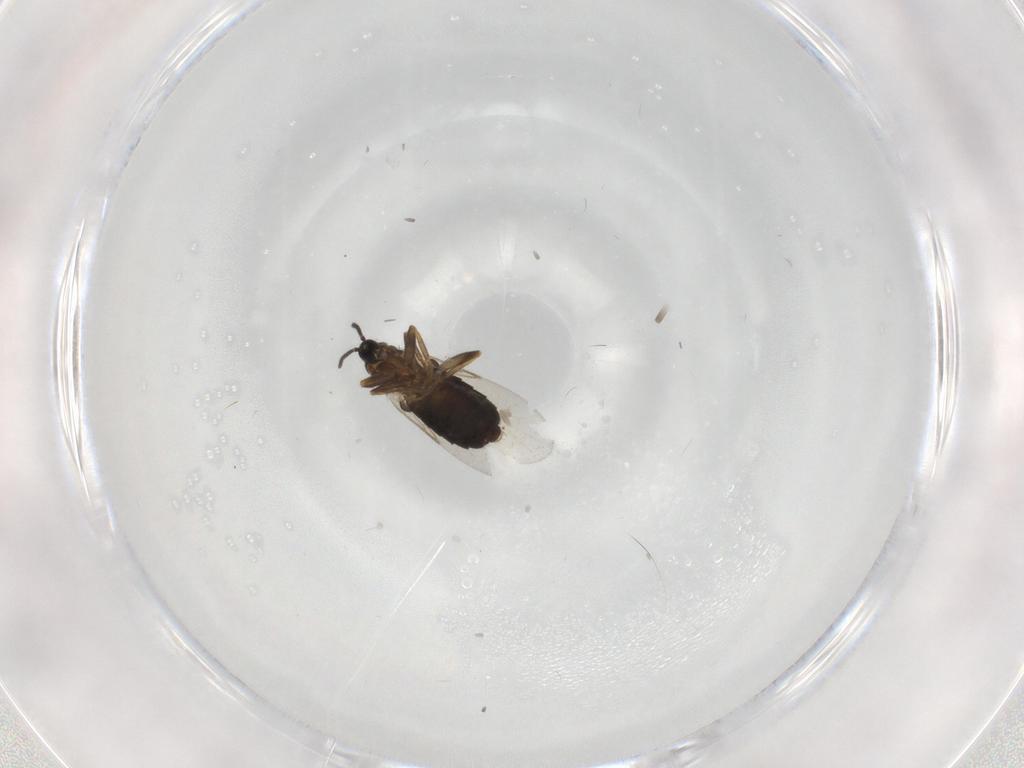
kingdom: Animalia
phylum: Arthropoda
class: Insecta
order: Diptera
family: Scatopsidae
